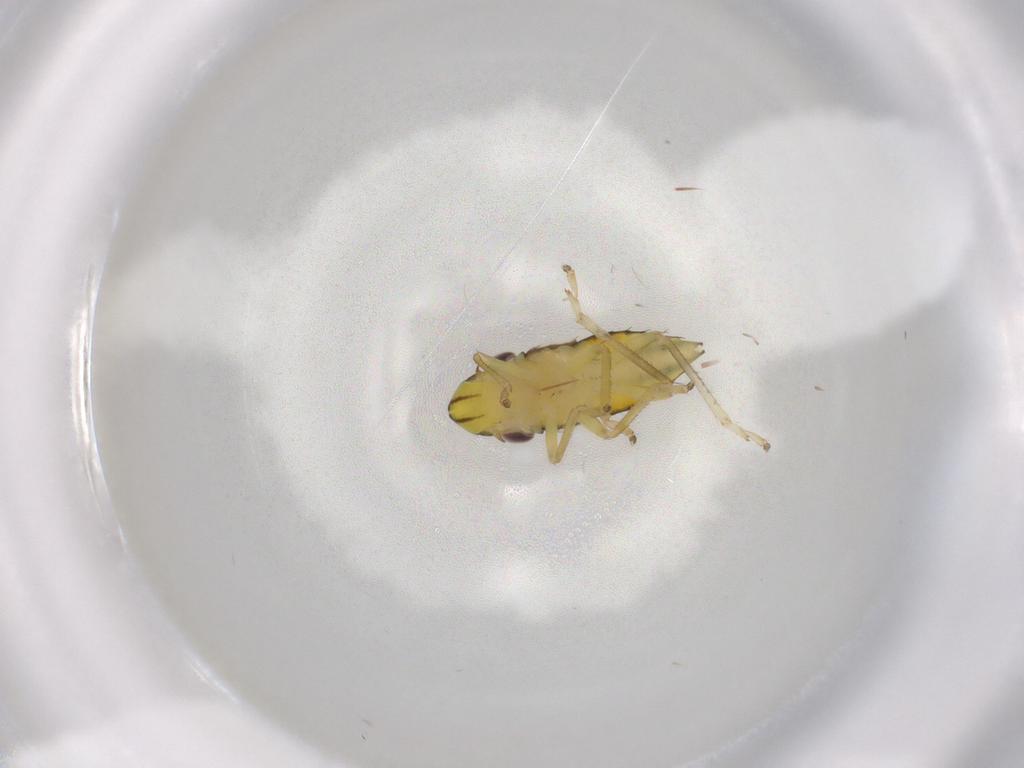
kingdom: Animalia
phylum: Arthropoda
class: Insecta
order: Hemiptera
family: Cicadellidae
